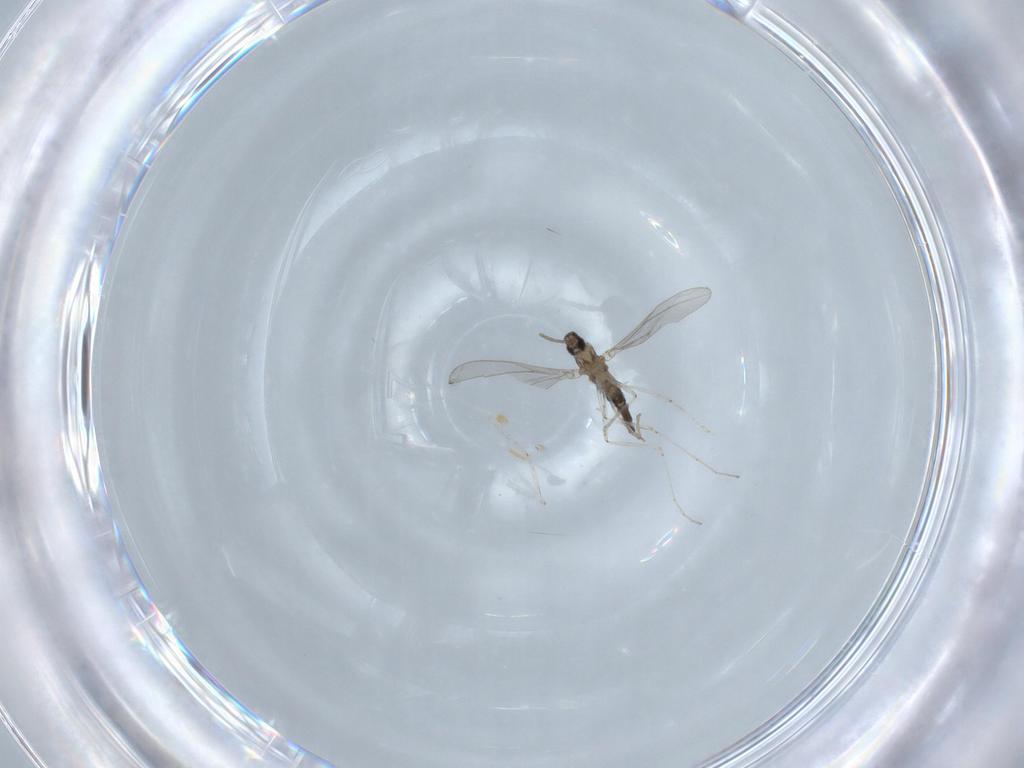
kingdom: Animalia
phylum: Arthropoda
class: Insecta
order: Diptera
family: Cecidomyiidae
